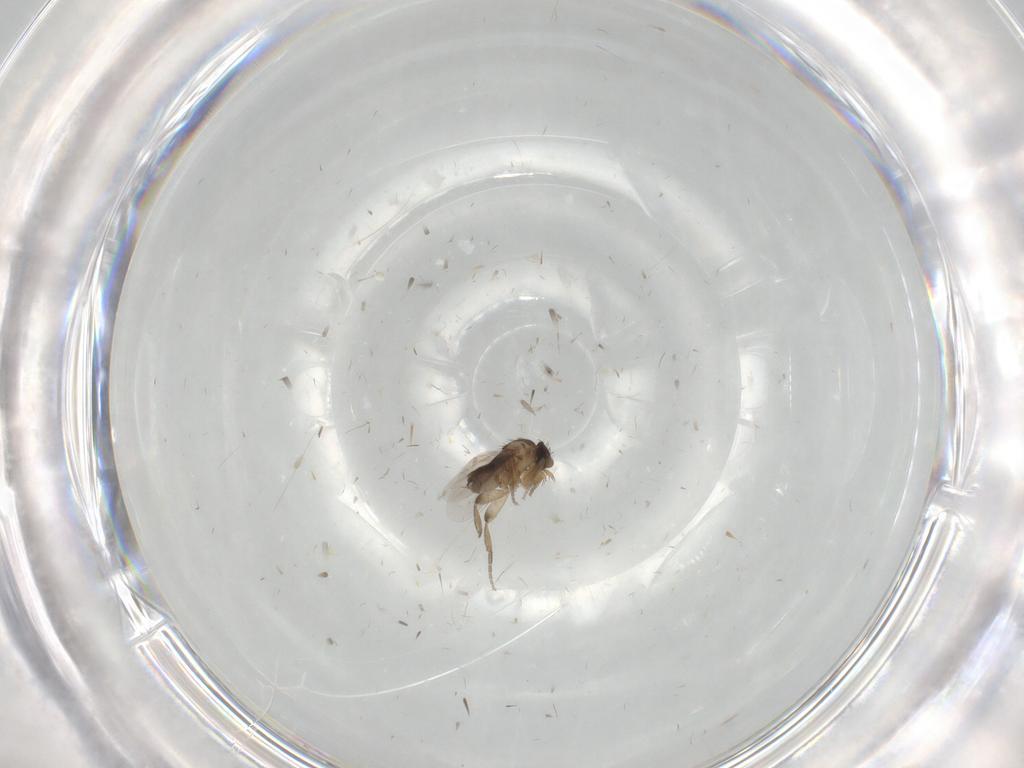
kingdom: Animalia
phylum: Arthropoda
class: Insecta
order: Diptera
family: Phoridae
